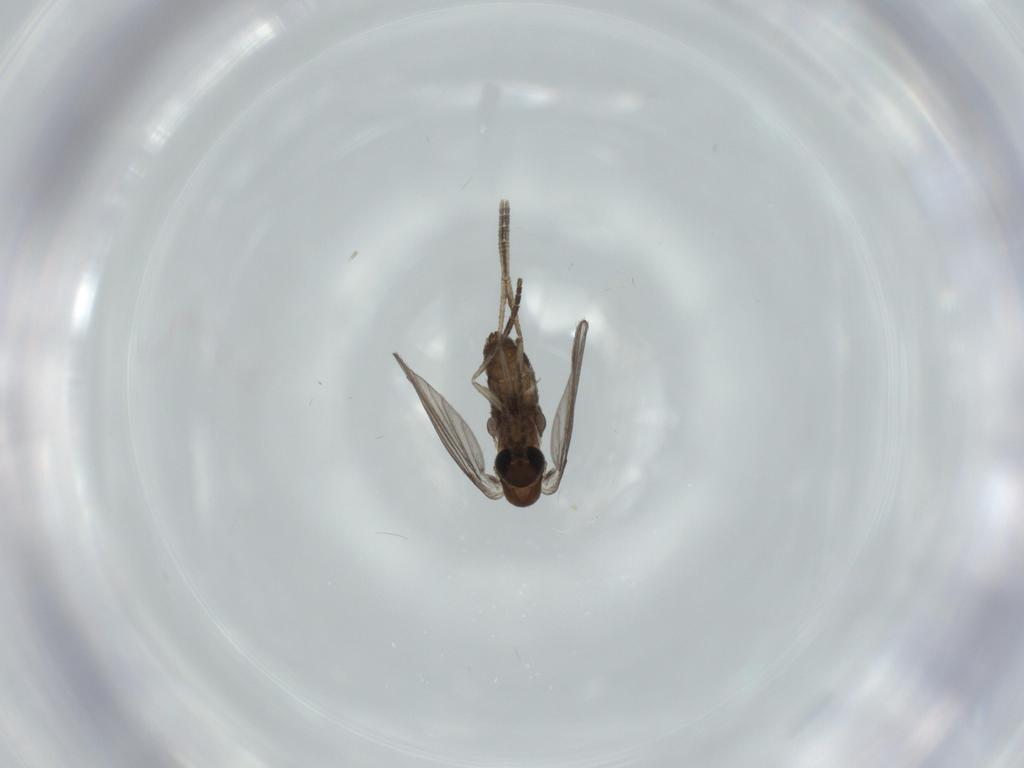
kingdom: Animalia
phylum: Arthropoda
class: Insecta
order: Diptera
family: Psychodidae
